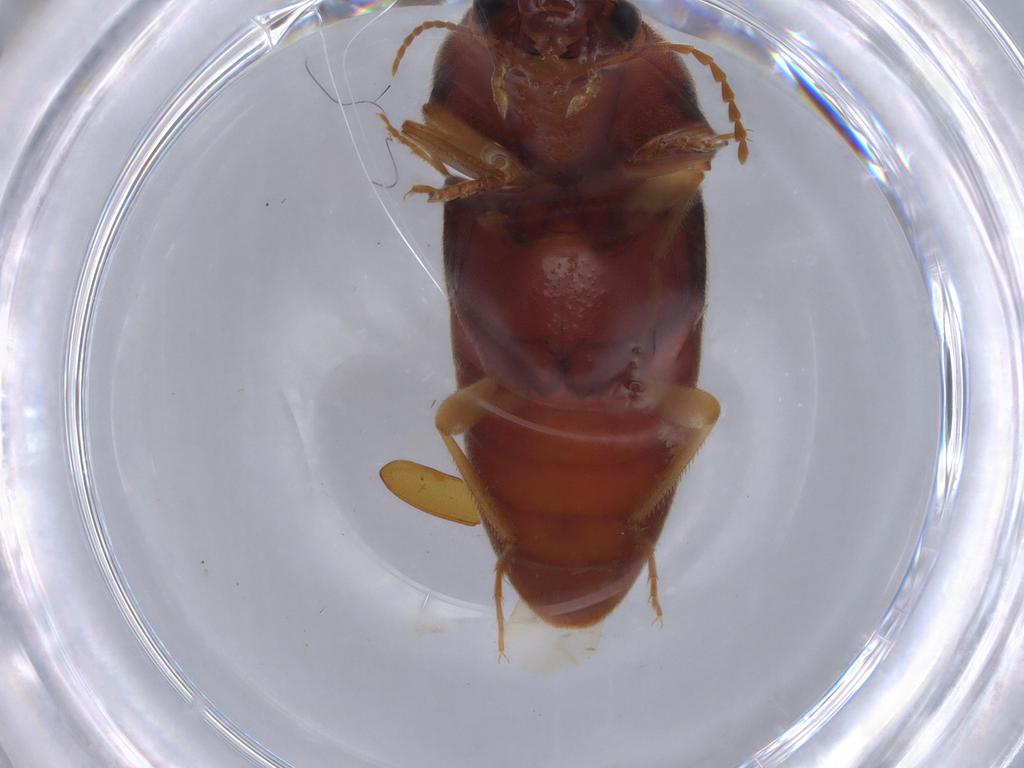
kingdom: Animalia
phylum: Arthropoda
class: Insecta
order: Coleoptera
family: Elateridae
